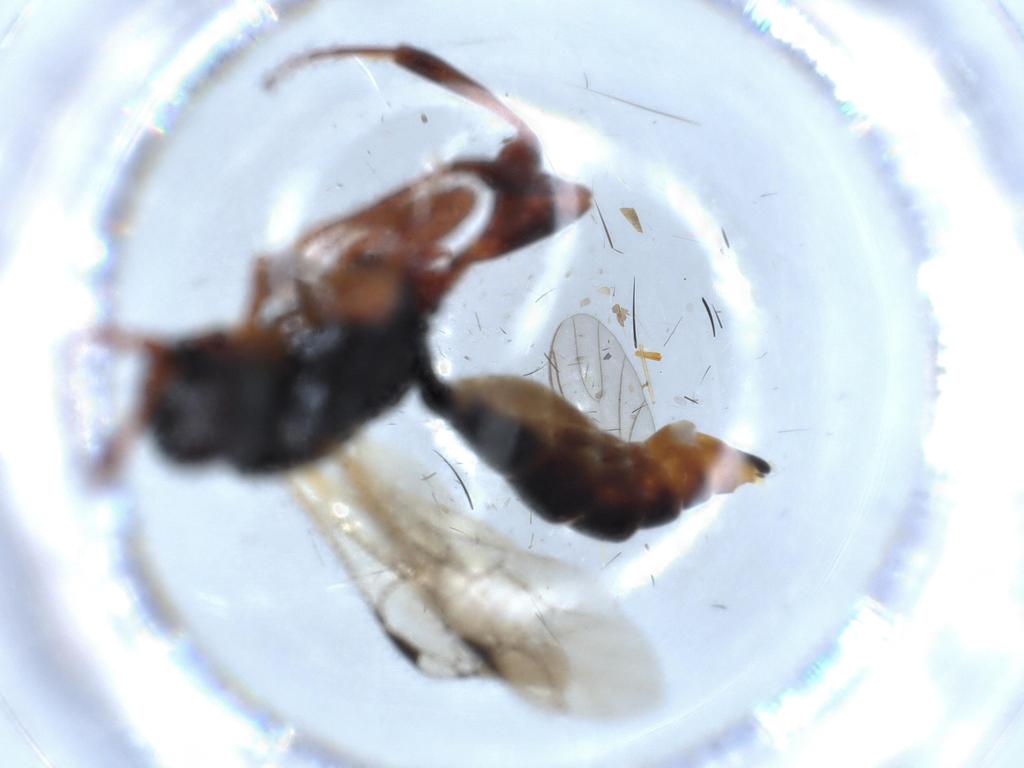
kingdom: Animalia
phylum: Arthropoda
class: Insecta
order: Hymenoptera
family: Ichneumonidae
